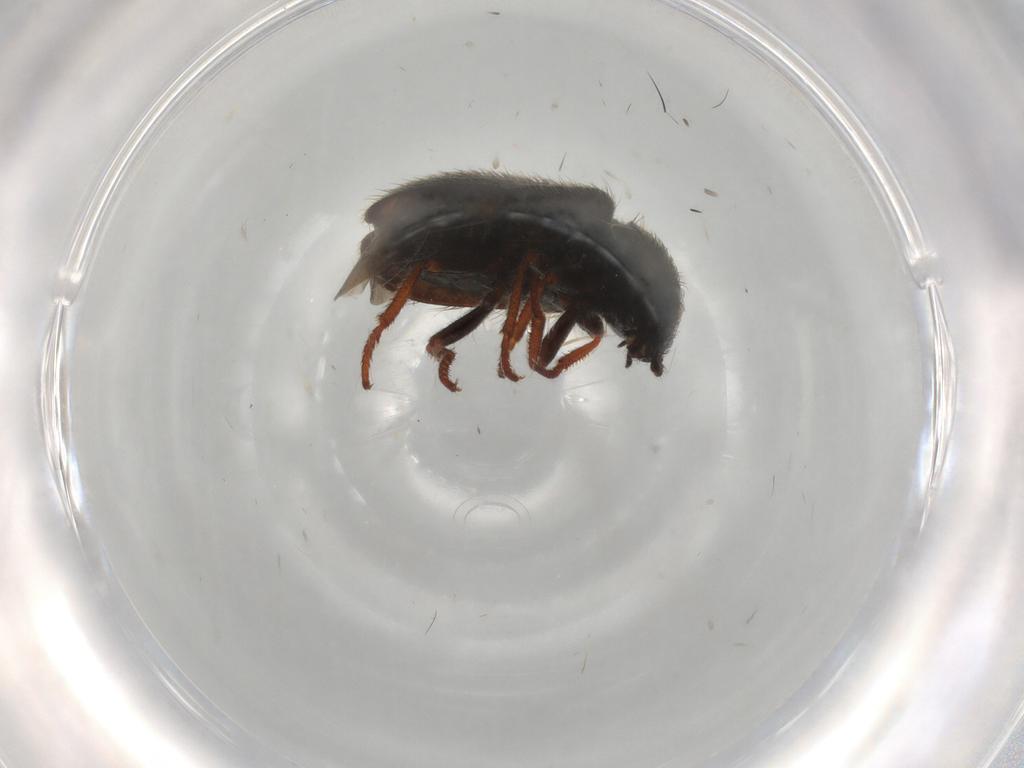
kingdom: Animalia
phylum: Arthropoda
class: Insecta
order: Coleoptera
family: Melyridae
